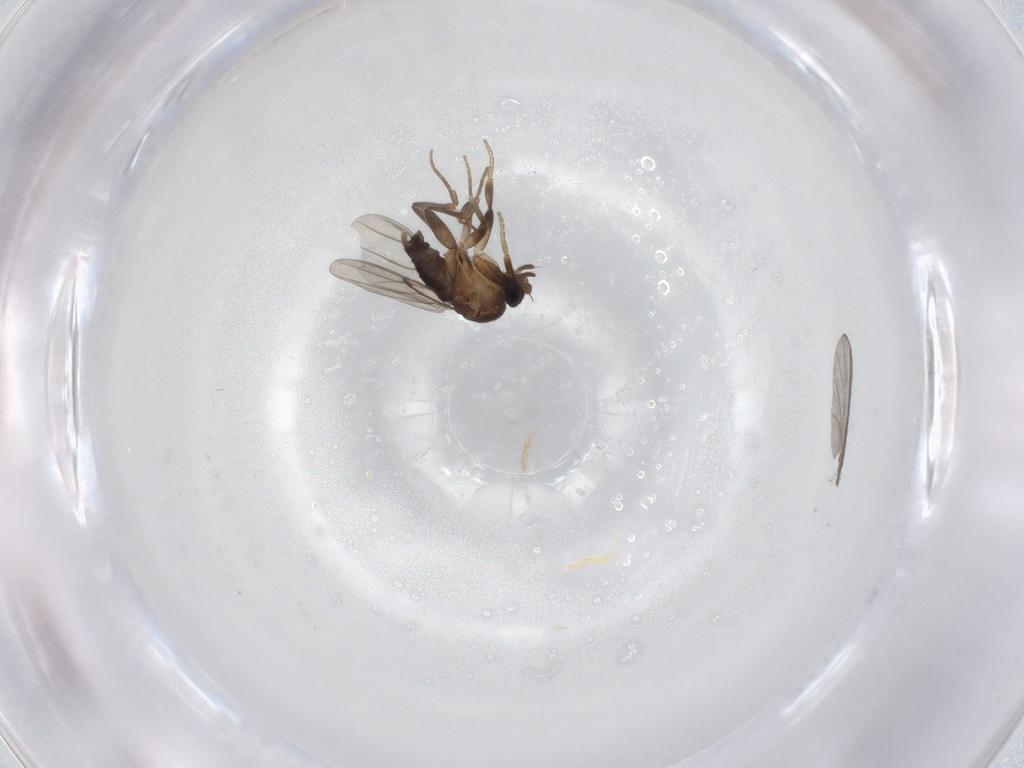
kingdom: Animalia
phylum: Arthropoda
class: Insecta
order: Diptera
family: Phoridae
